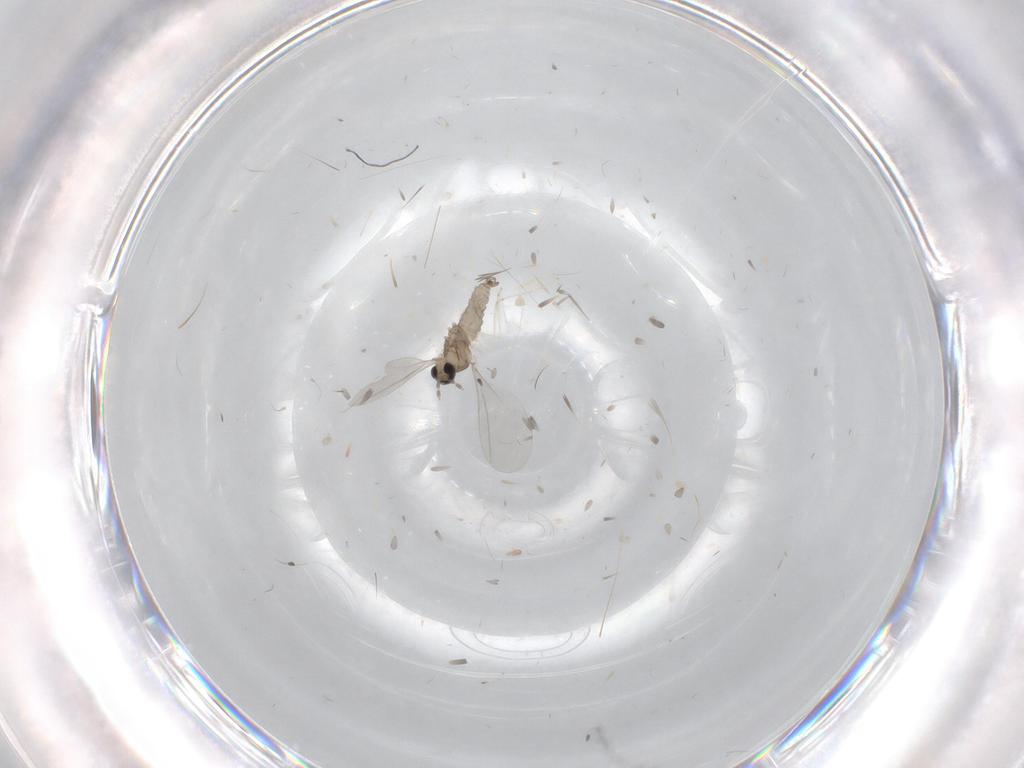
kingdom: Animalia
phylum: Arthropoda
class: Insecta
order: Diptera
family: Cecidomyiidae
